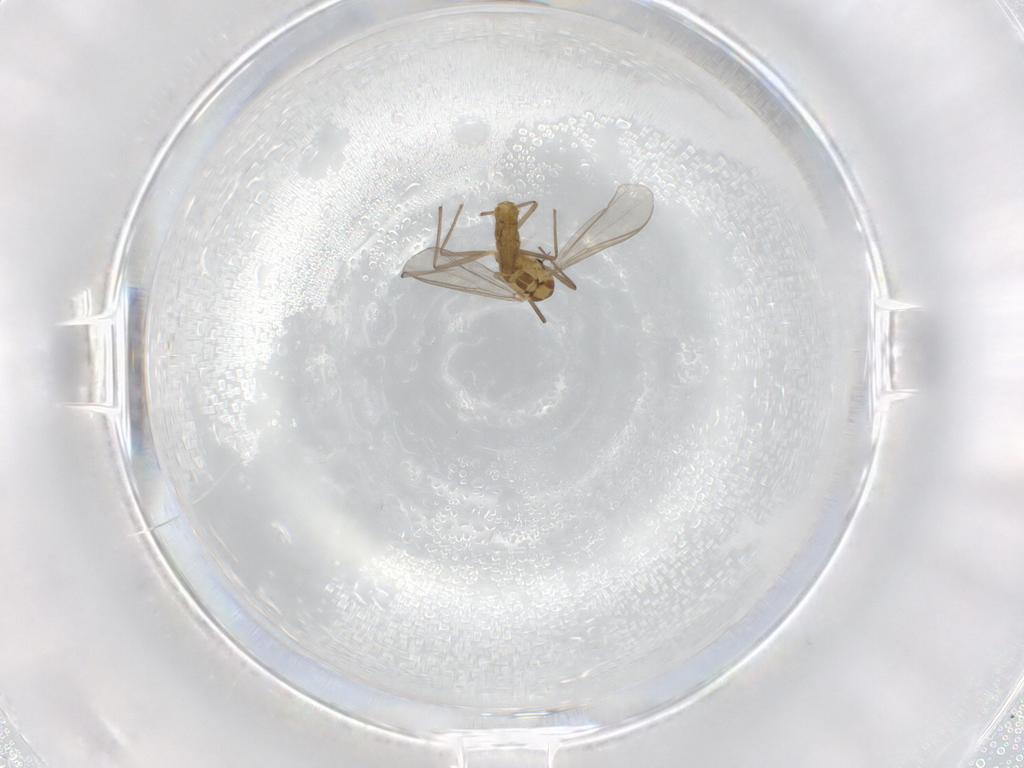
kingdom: Animalia
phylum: Arthropoda
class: Insecta
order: Diptera
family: Chironomidae
